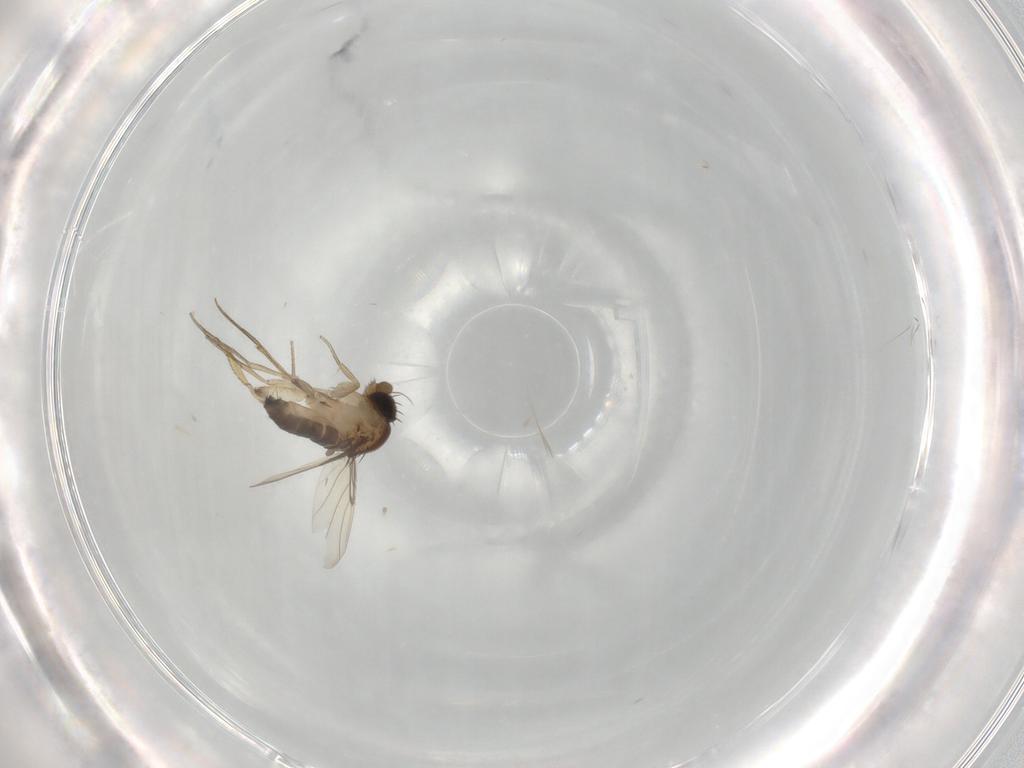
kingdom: Animalia
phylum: Arthropoda
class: Insecta
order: Diptera
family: Phoridae
